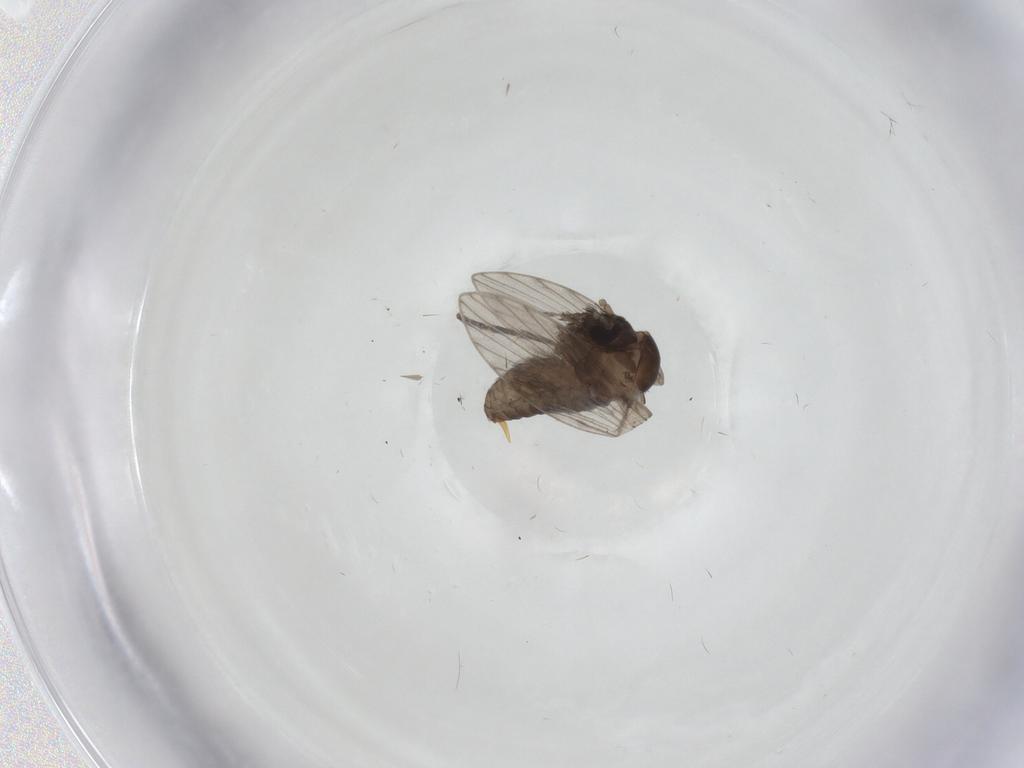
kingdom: Animalia
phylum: Arthropoda
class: Insecta
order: Diptera
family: Psychodidae
